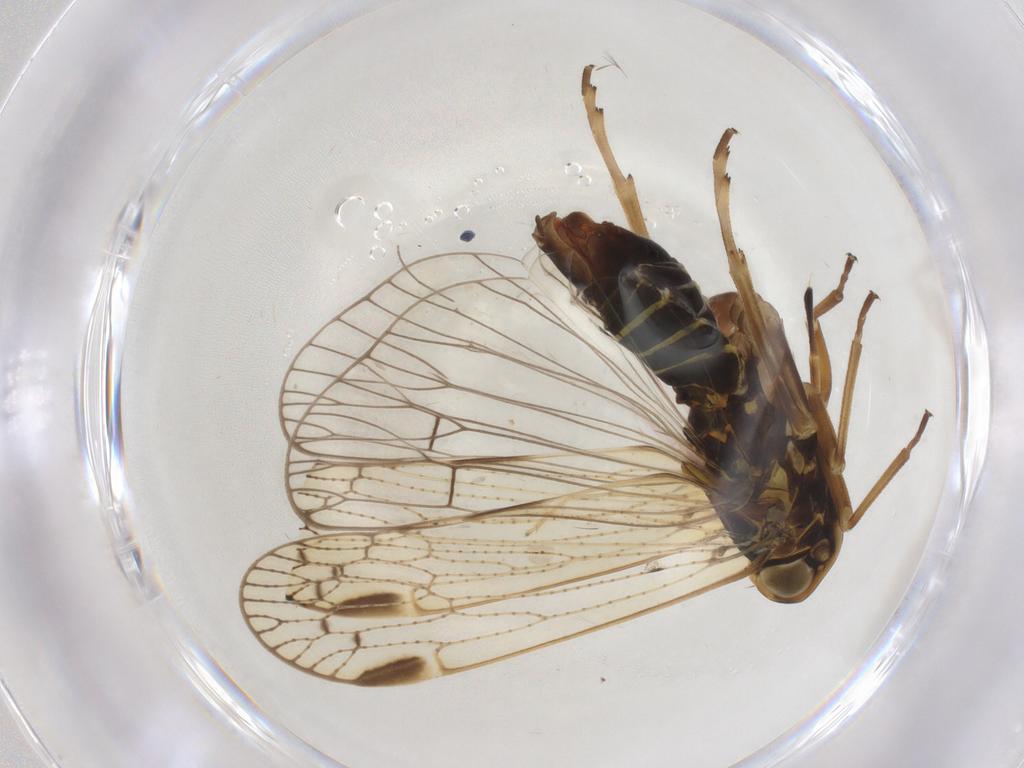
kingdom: Animalia
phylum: Arthropoda
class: Insecta
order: Hemiptera
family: Cixiidae
